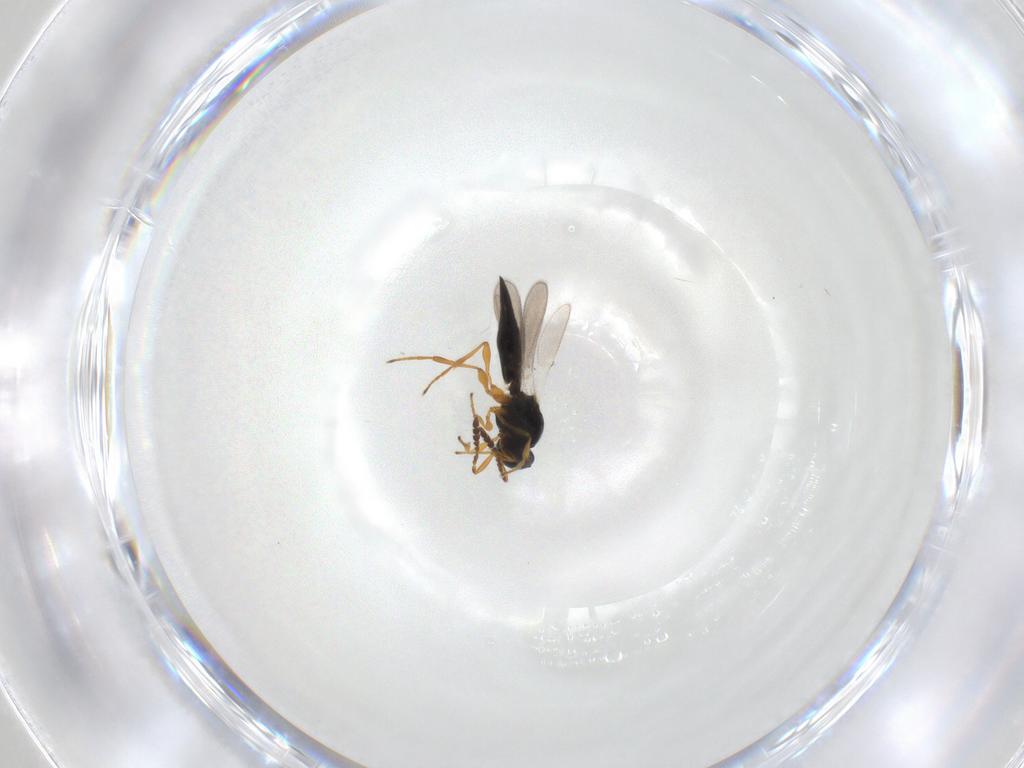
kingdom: Animalia
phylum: Arthropoda
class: Insecta
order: Hymenoptera
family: Platygastridae
